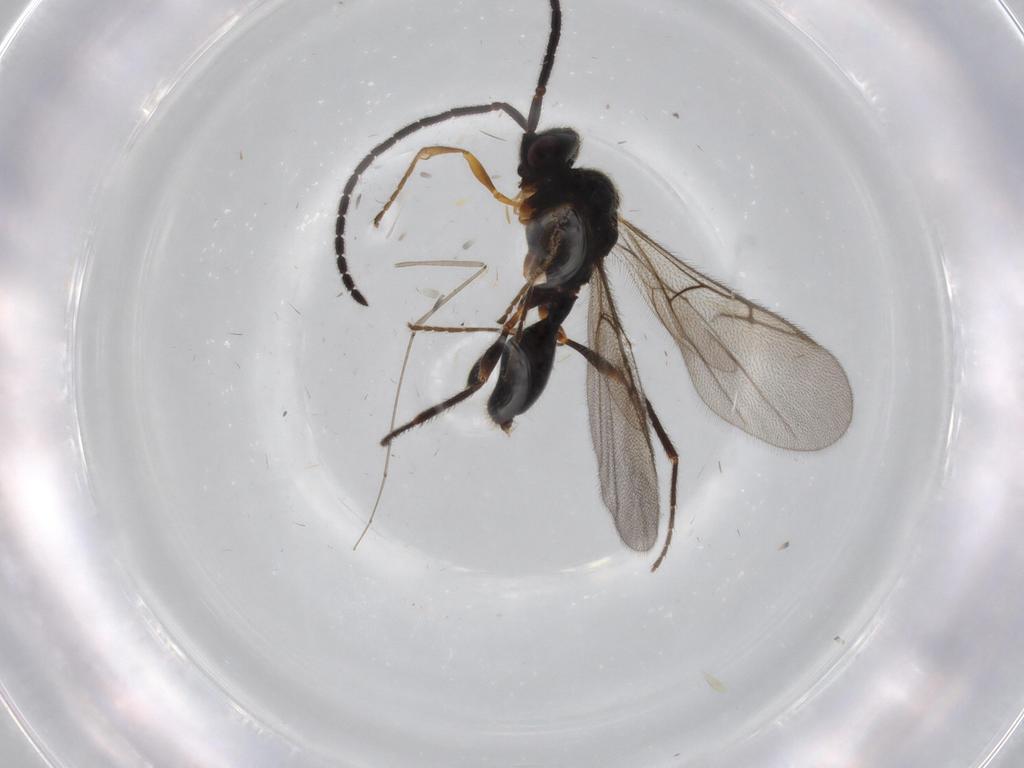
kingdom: Animalia
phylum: Arthropoda
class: Insecta
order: Hymenoptera
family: Diapriidae
